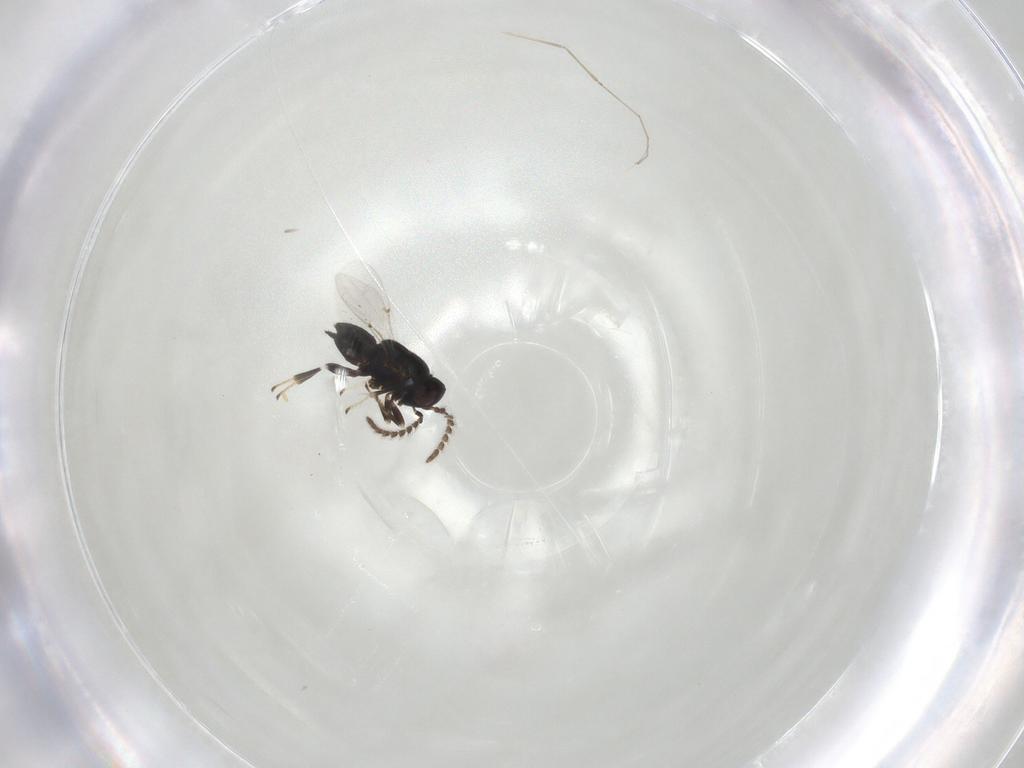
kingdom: Animalia
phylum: Arthropoda
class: Insecta
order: Hymenoptera
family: Encyrtidae
